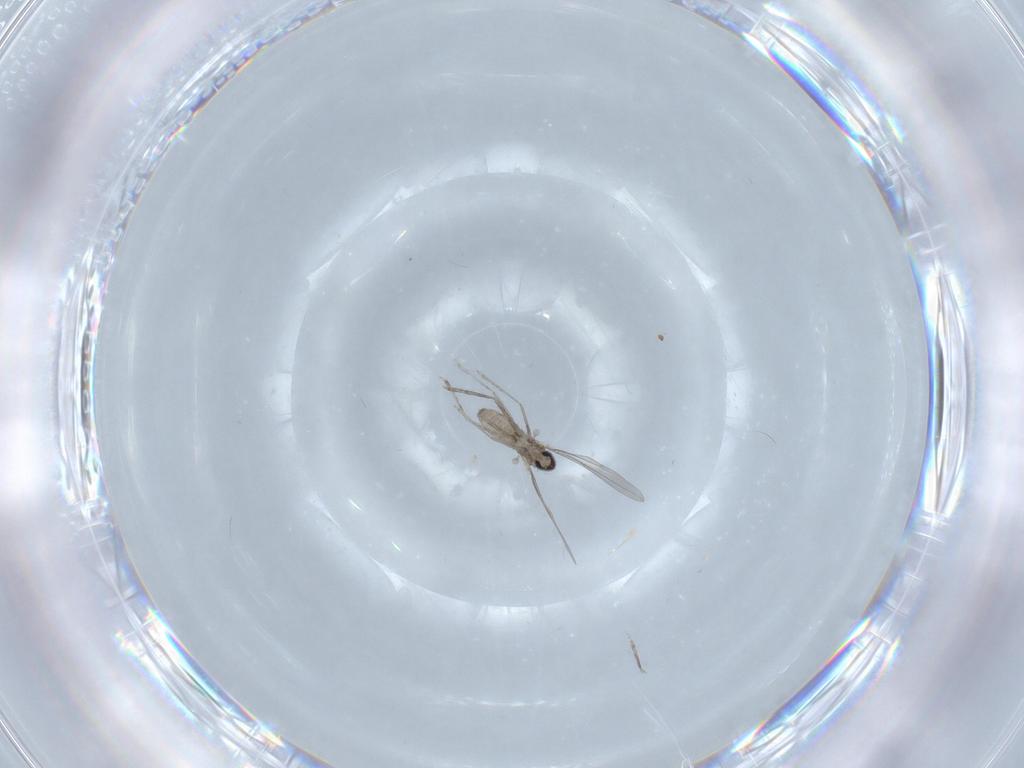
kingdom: Animalia
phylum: Arthropoda
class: Insecta
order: Diptera
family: Cecidomyiidae
